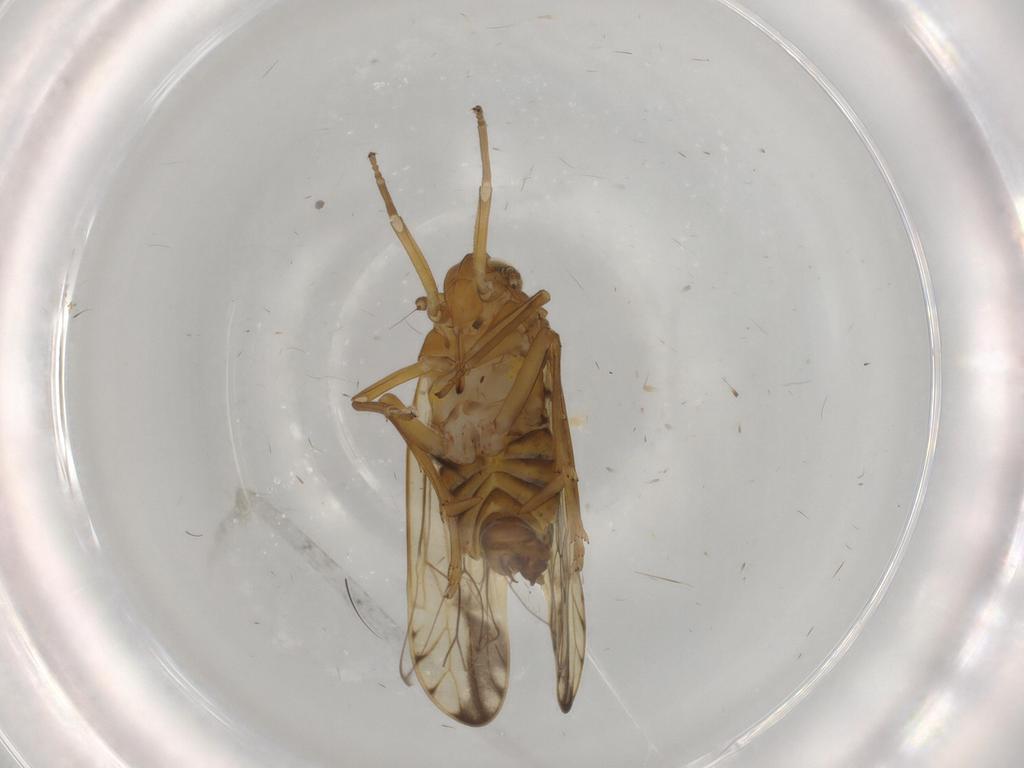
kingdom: Animalia
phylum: Arthropoda
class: Insecta
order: Hemiptera
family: Delphacidae
